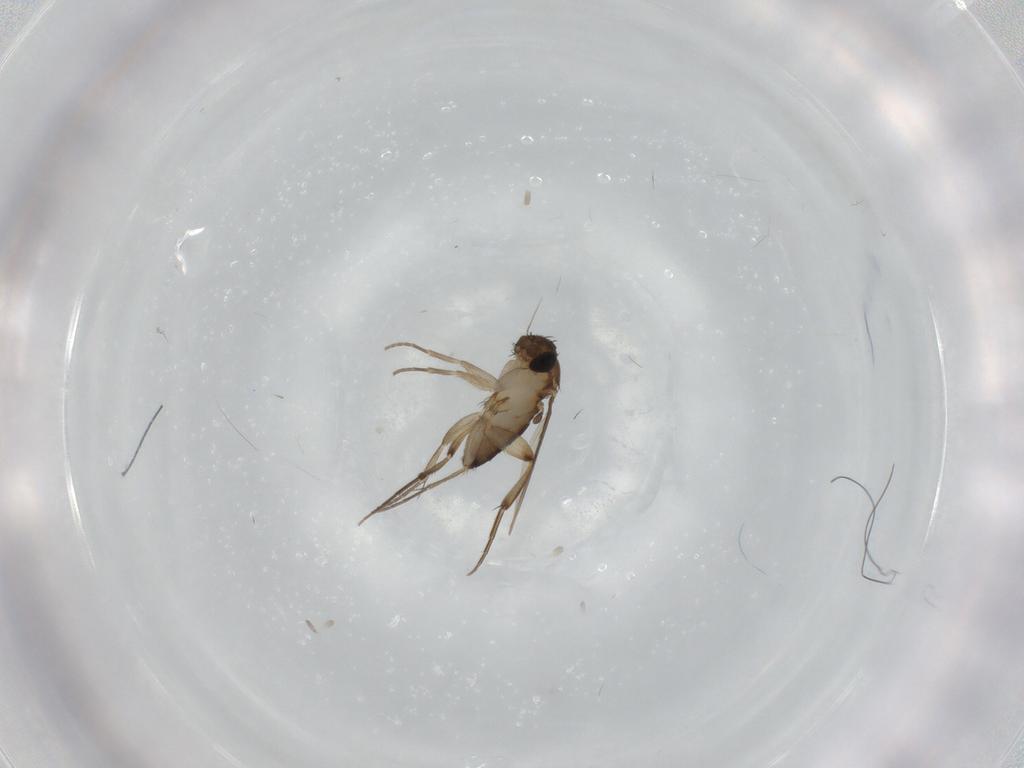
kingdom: Animalia
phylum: Arthropoda
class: Insecta
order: Diptera
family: Phoridae
